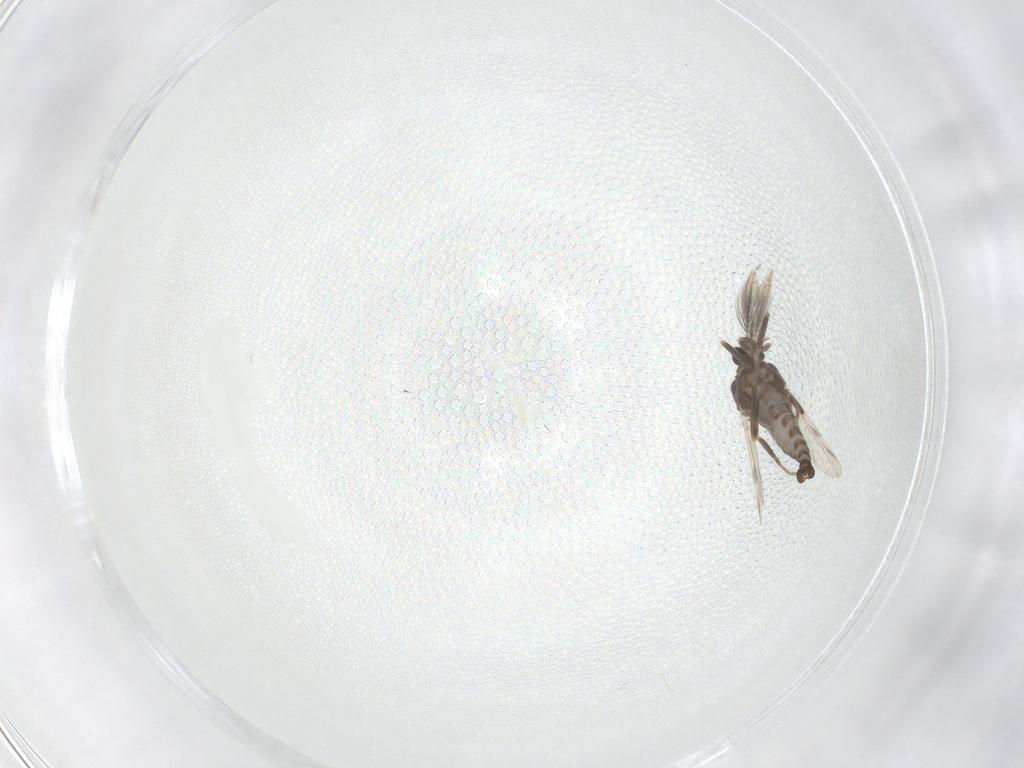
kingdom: Animalia
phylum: Arthropoda
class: Insecta
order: Diptera
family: Ceratopogonidae
